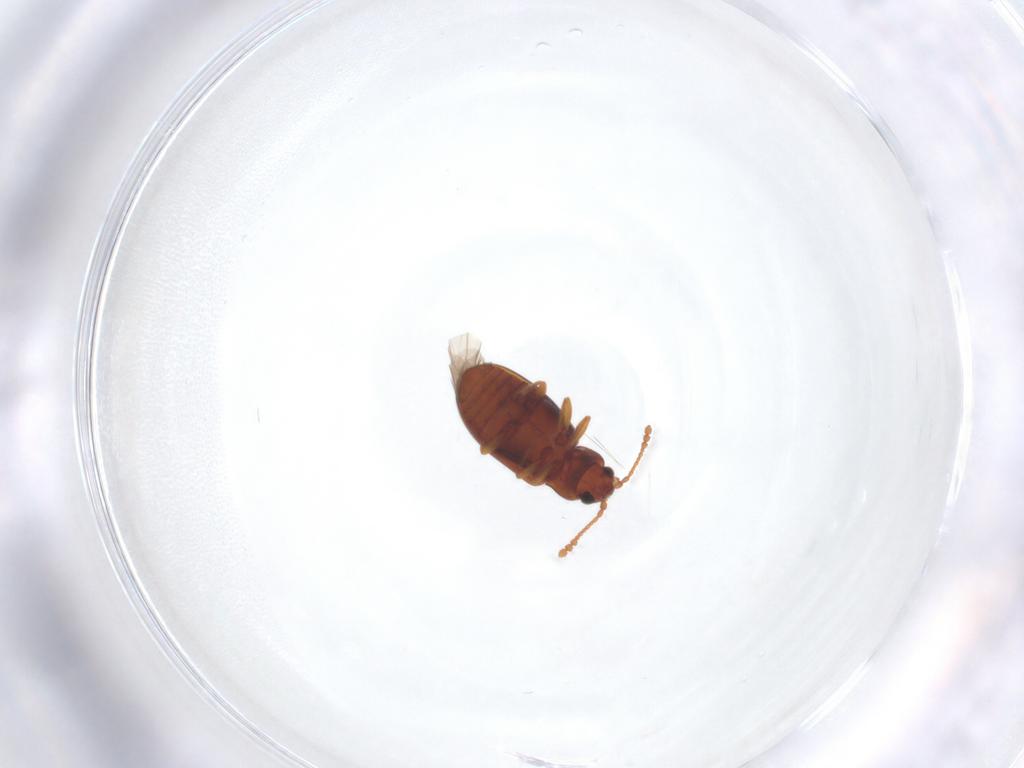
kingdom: Animalia
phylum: Arthropoda
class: Insecta
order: Coleoptera
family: Cryptophagidae
